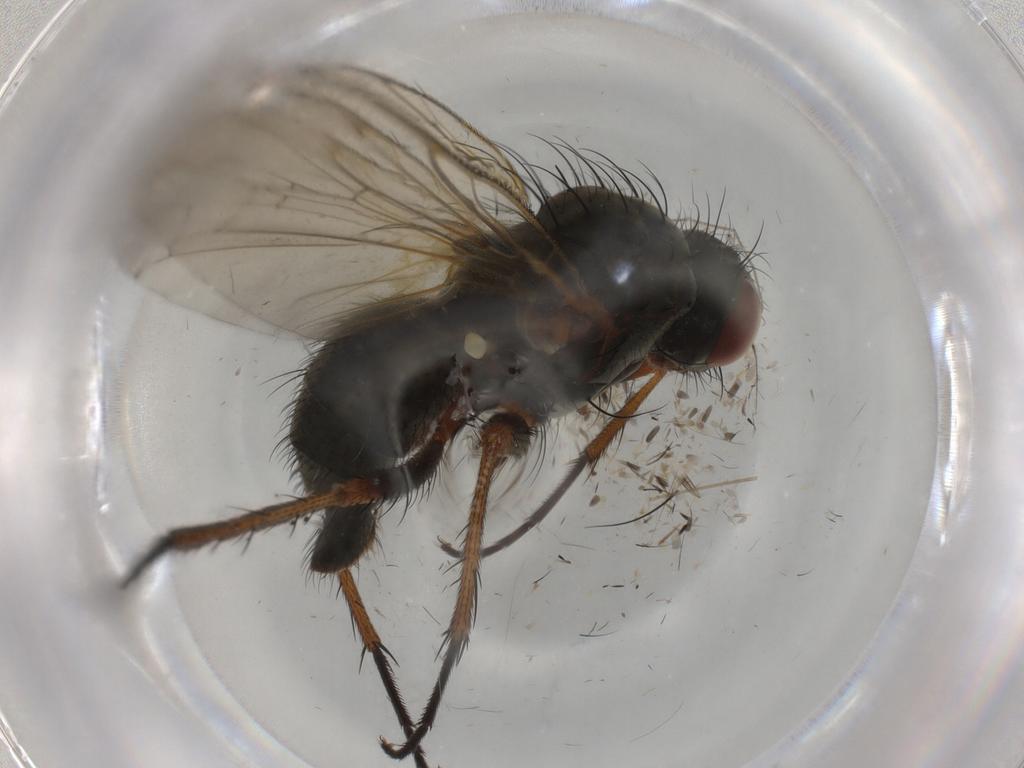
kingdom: Animalia
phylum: Arthropoda
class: Insecta
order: Diptera
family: Anthomyiidae
